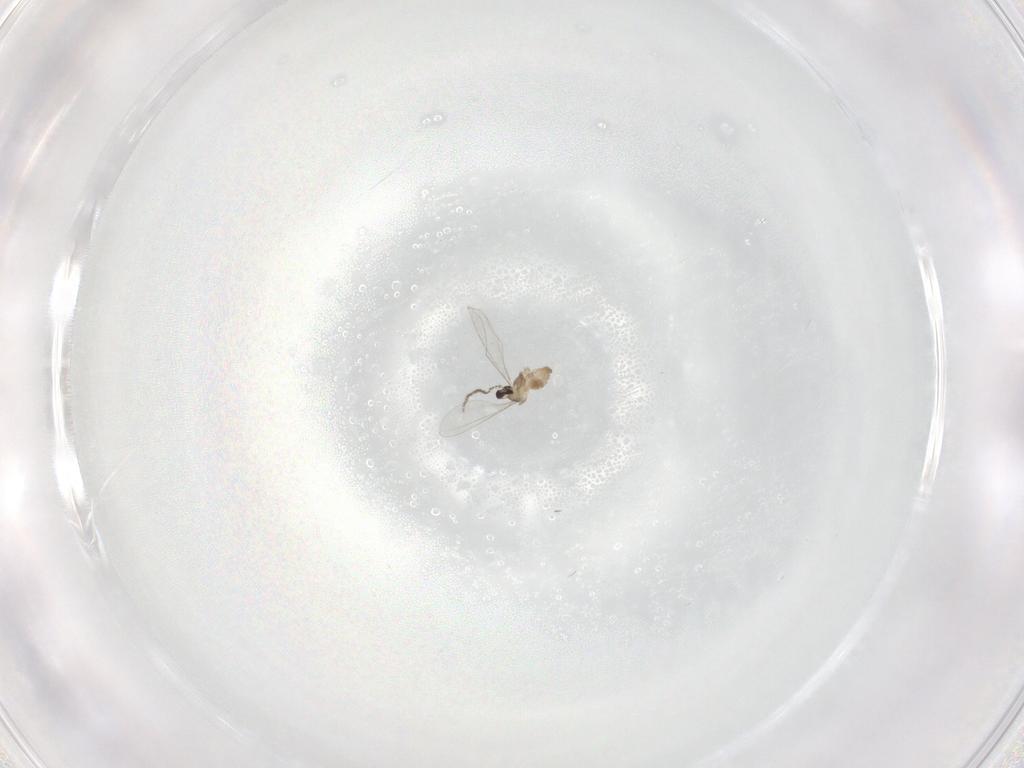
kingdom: Animalia
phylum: Arthropoda
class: Insecta
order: Diptera
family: Cecidomyiidae
